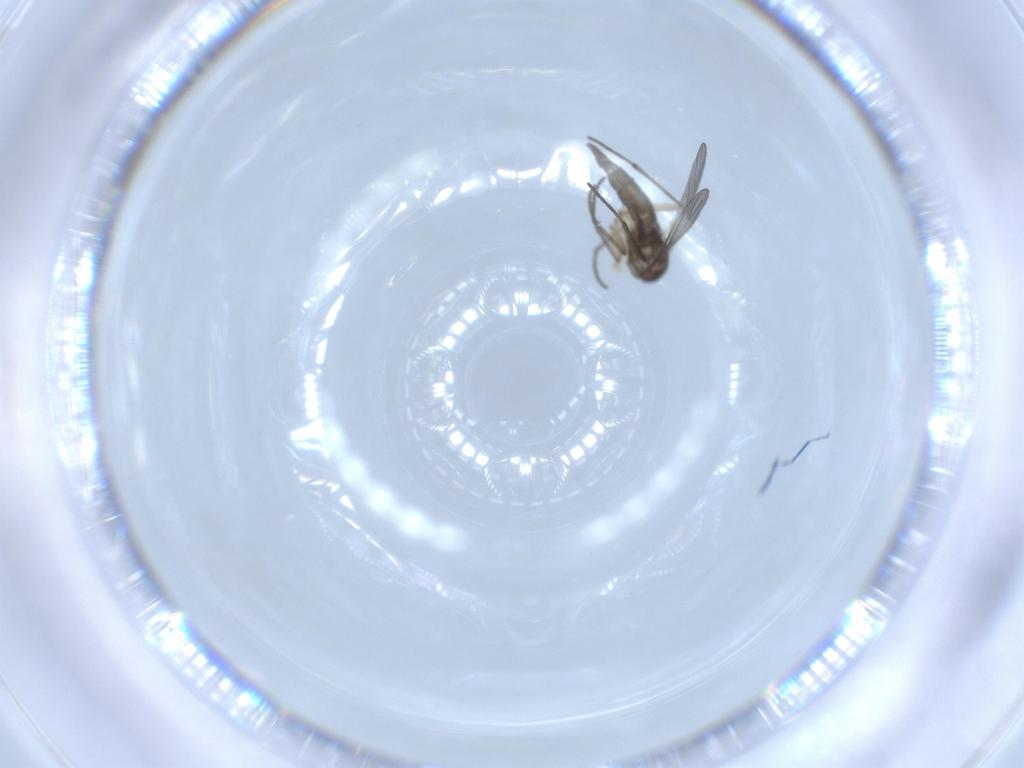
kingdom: Animalia
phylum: Arthropoda
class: Insecta
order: Diptera
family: Sciaridae
